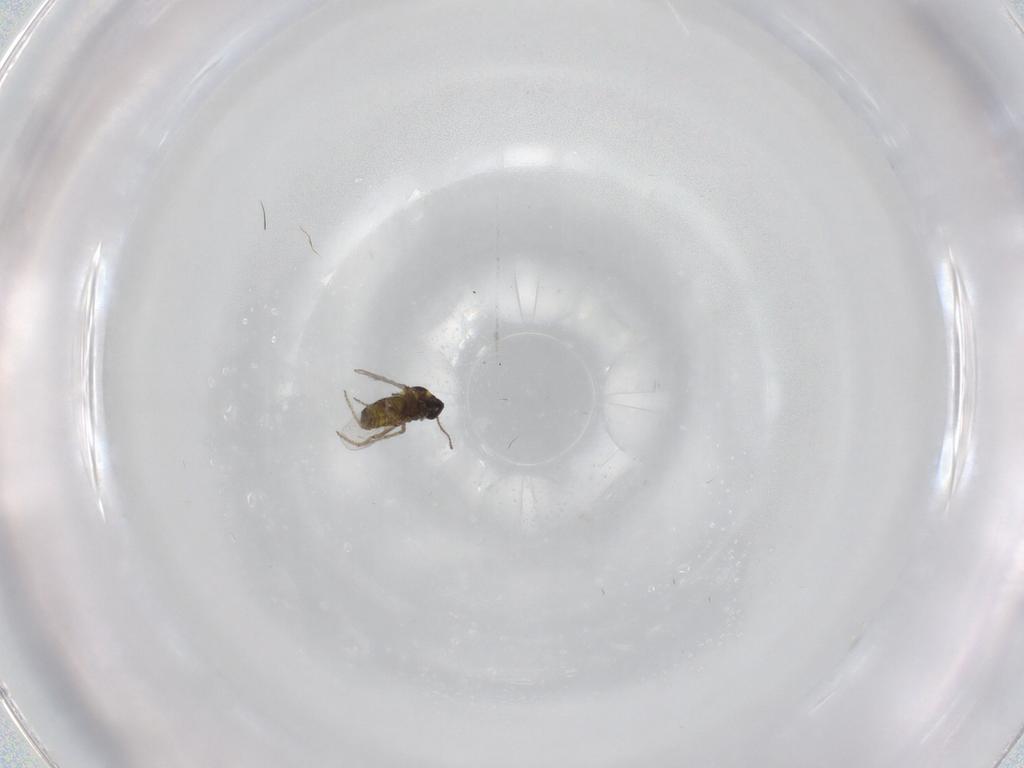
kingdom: Animalia
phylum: Arthropoda
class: Insecta
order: Diptera
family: Ceratopogonidae
